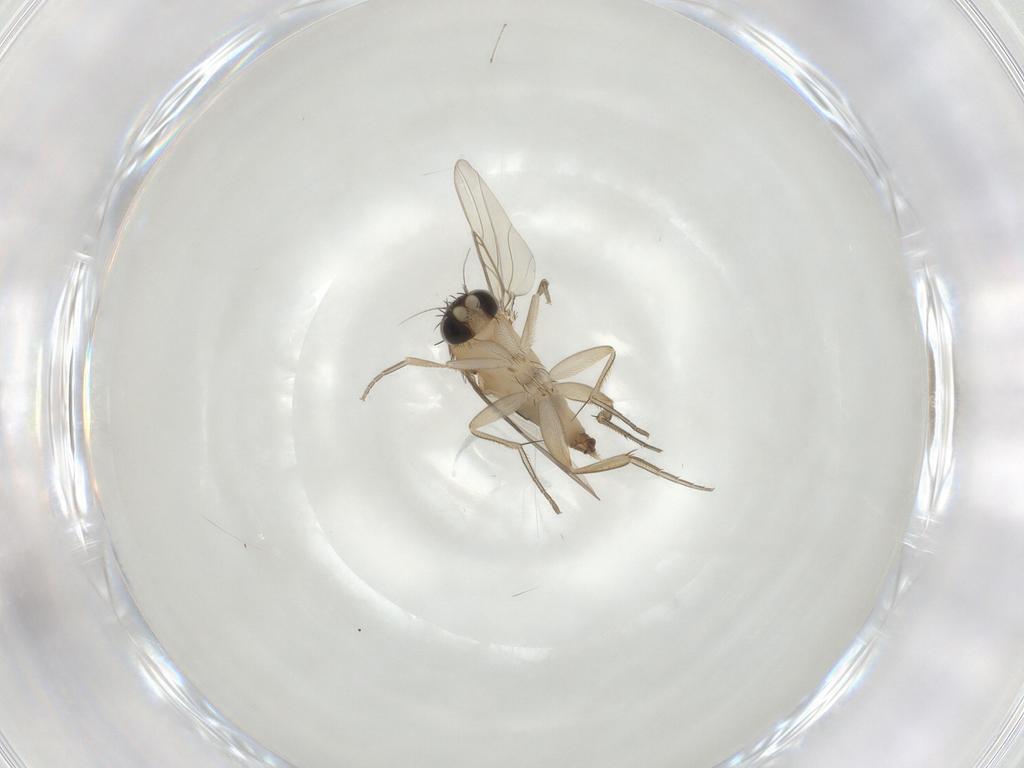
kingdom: Animalia
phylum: Arthropoda
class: Insecta
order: Diptera
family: Phoridae
